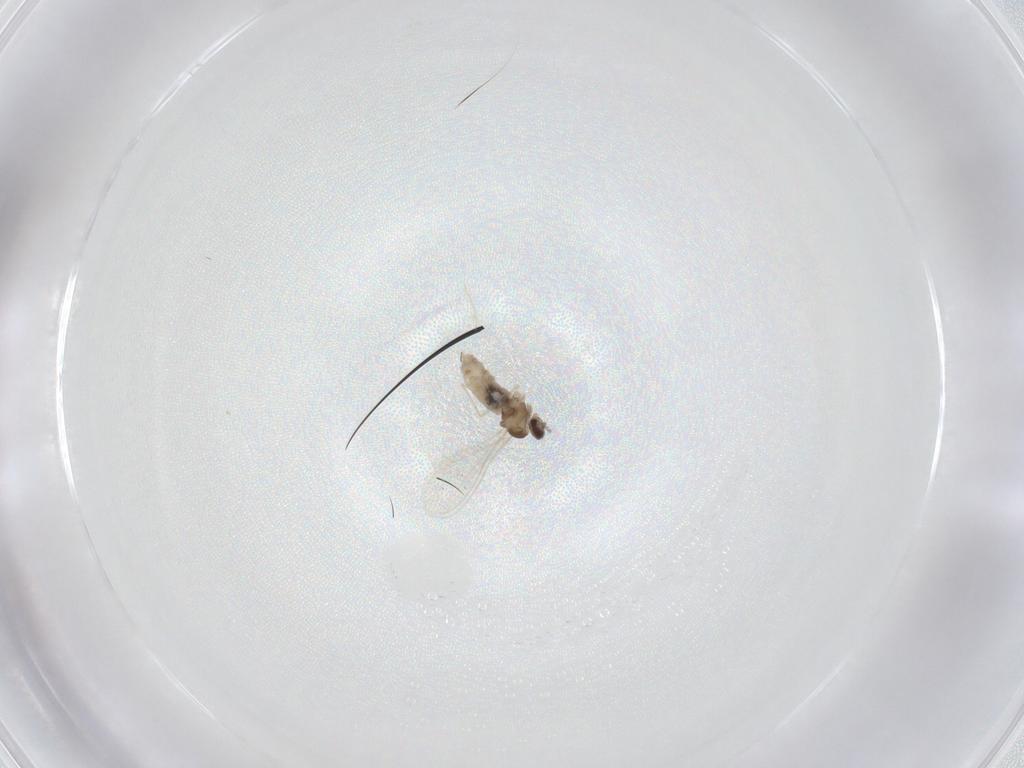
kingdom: Animalia
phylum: Arthropoda
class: Insecta
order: Diptera
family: Cecidomyiidae
